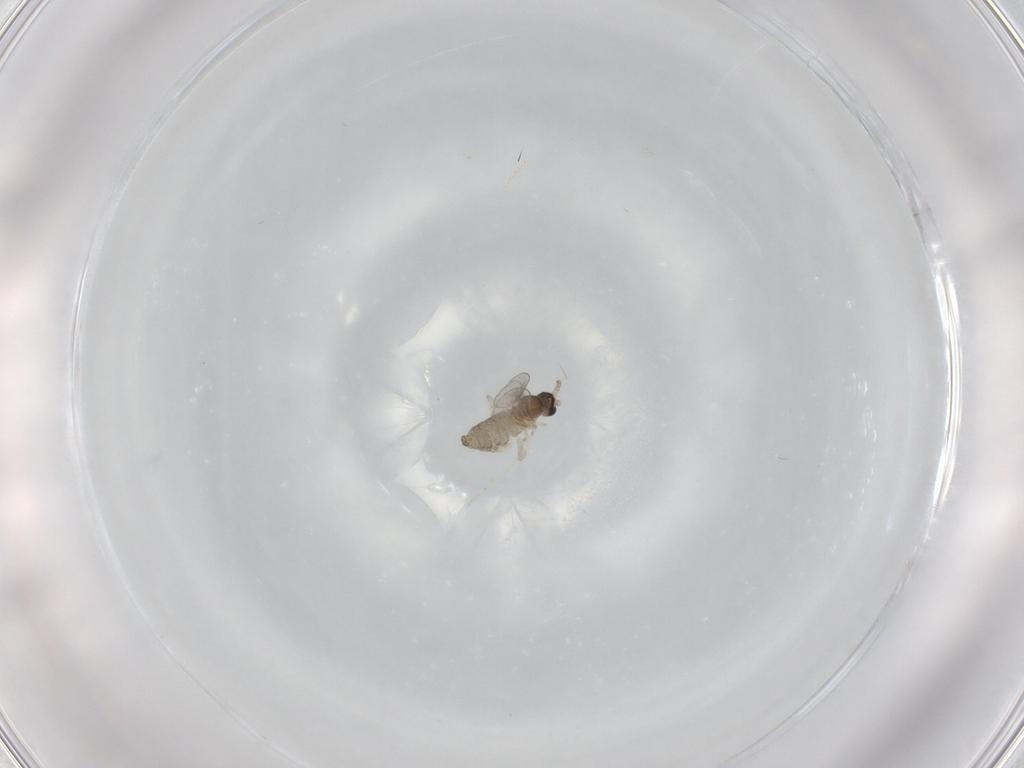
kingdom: Animalia
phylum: Arthropoda
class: Insecta
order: Diptera
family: Cecidomyiidae
